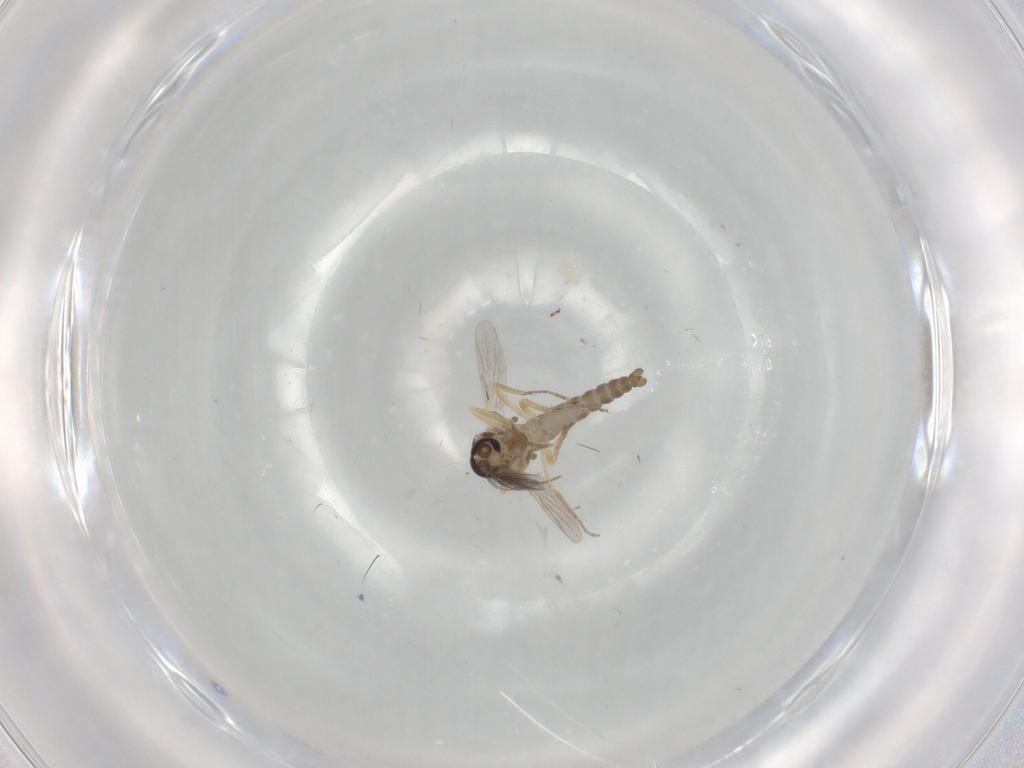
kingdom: Animalia
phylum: Arthropoda
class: Insecta
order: Diptera
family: Ceratopogonidae
